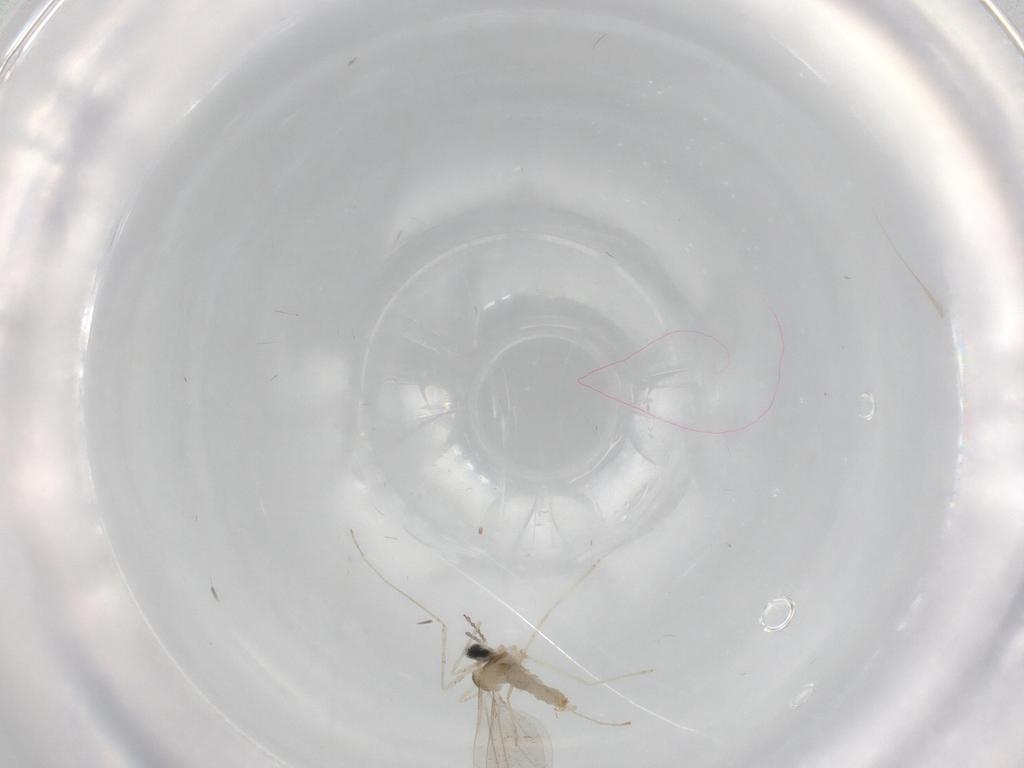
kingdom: Animalia
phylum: Arthropoda
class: Insecta
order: Diptera
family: Cecidomyiidae
